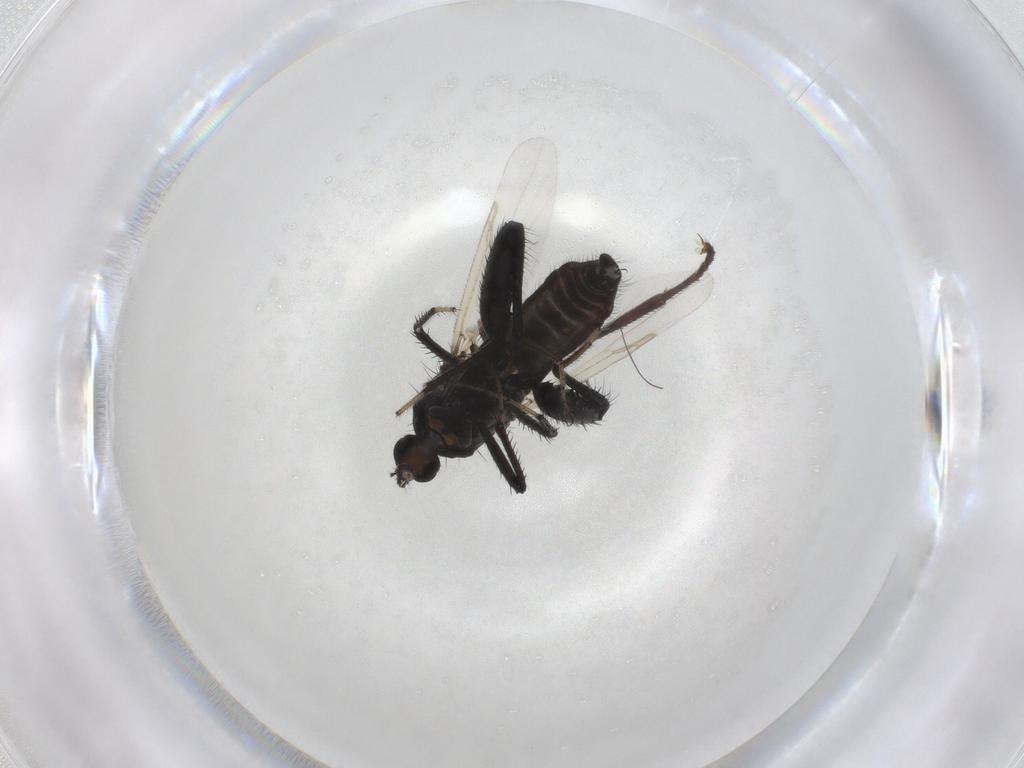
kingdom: Animalia
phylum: Arthropoda
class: Insecta
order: Diptera
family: Ceratopogonidae
